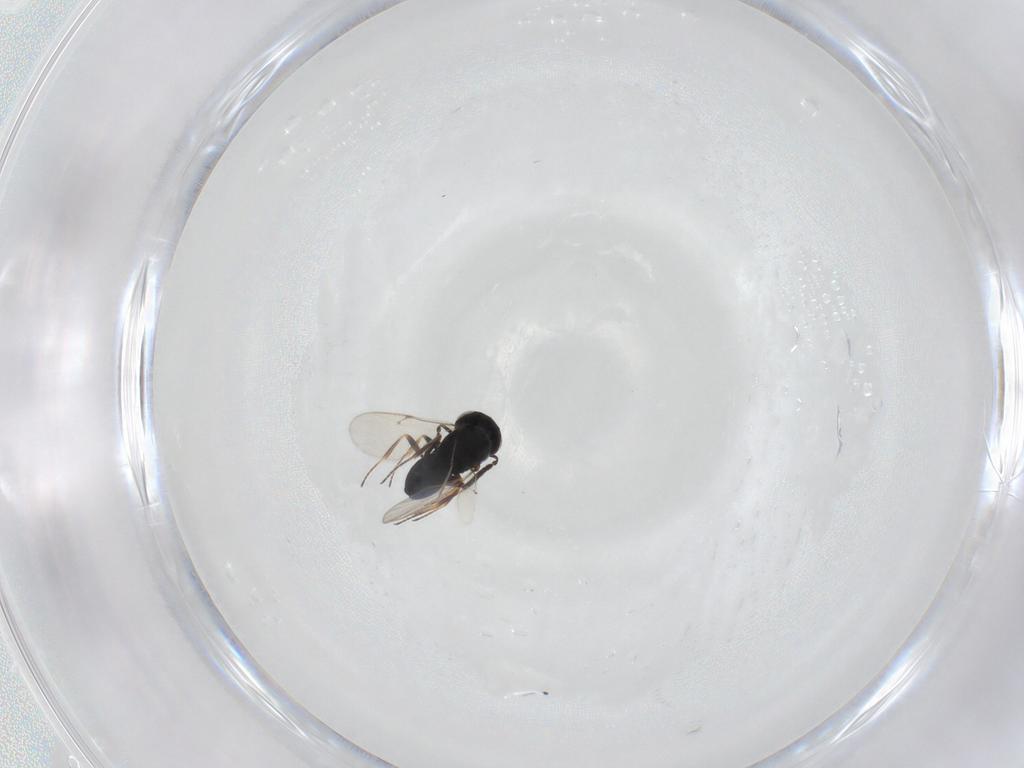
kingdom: Animalia
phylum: Arthropoda
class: Insecta
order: Hymenoptera
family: Scelionidae
